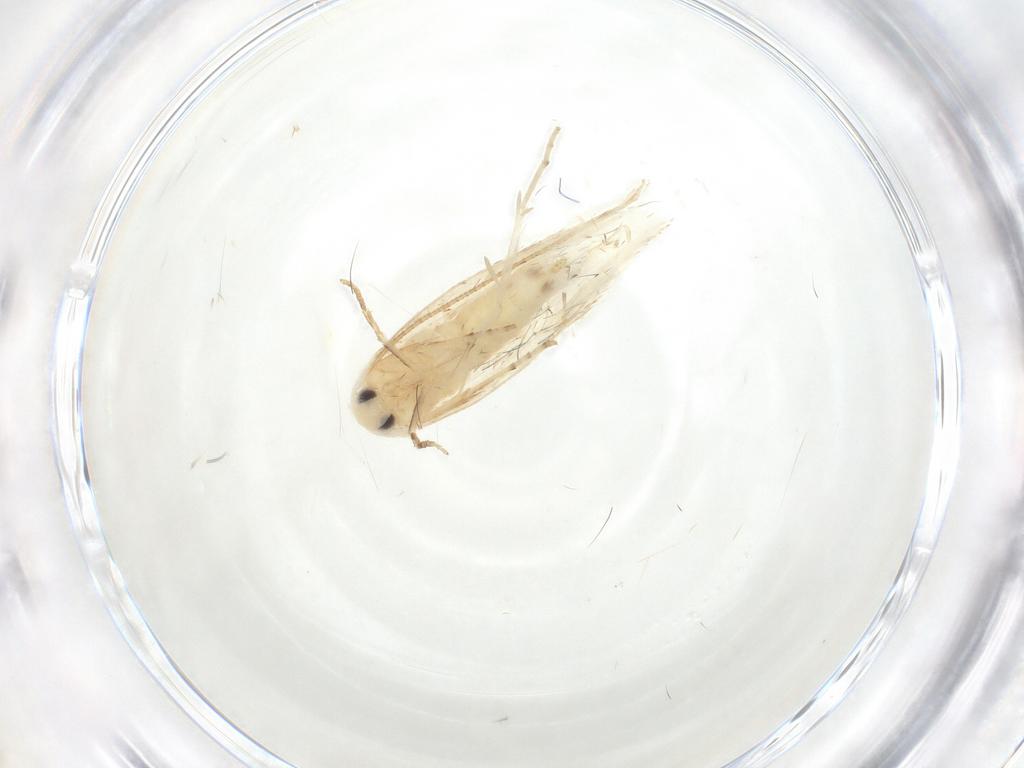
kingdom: Animalia
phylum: Arthropoda
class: Insecta
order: Lepidoptera
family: Lyonetiidae
